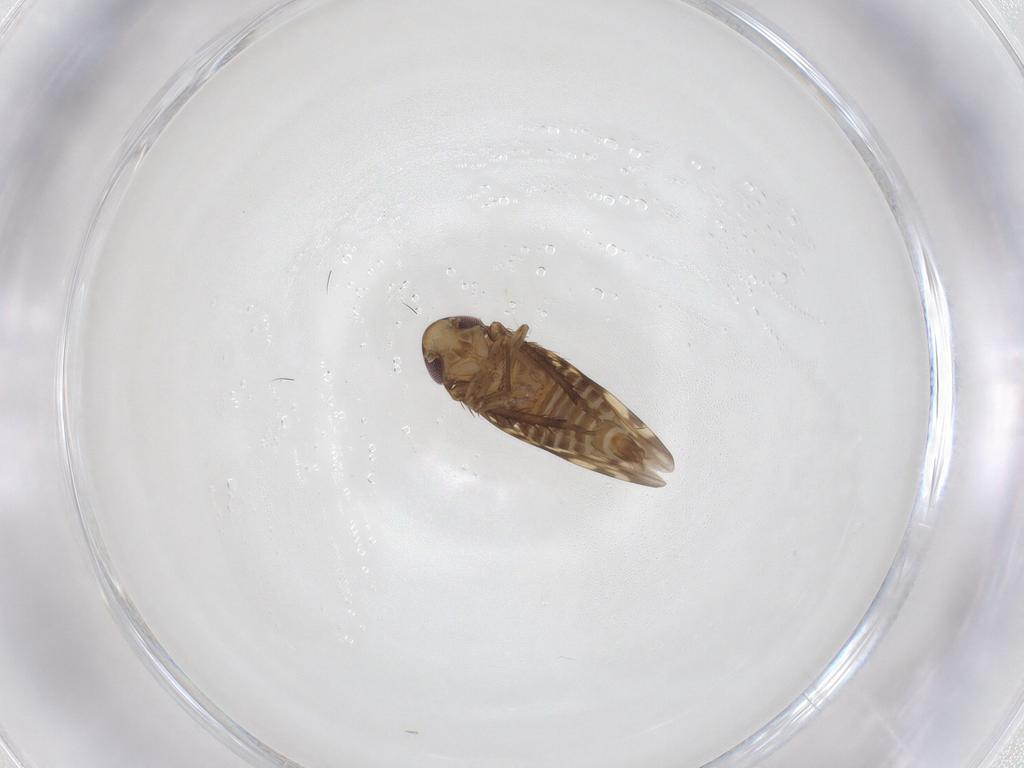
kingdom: Animalia
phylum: Arthropoda
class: Insecta
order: Hemiptera
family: Cicadellidae
